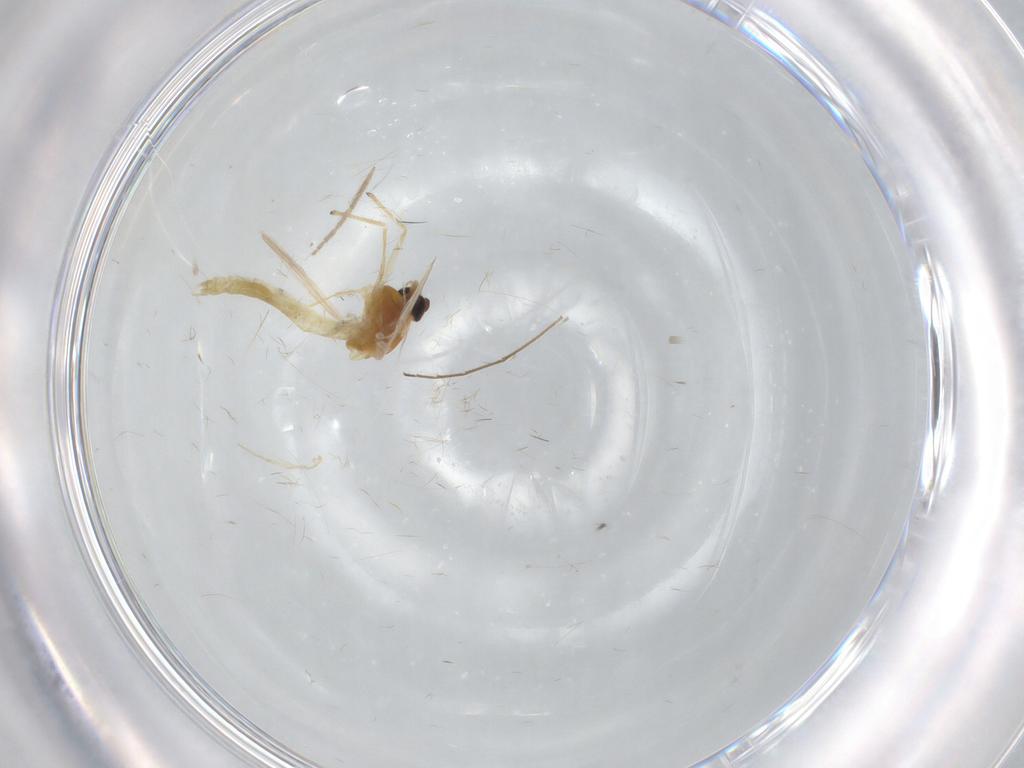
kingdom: Animalia
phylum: Arthropoda
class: Insecta
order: Diptera
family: Chironomidae
